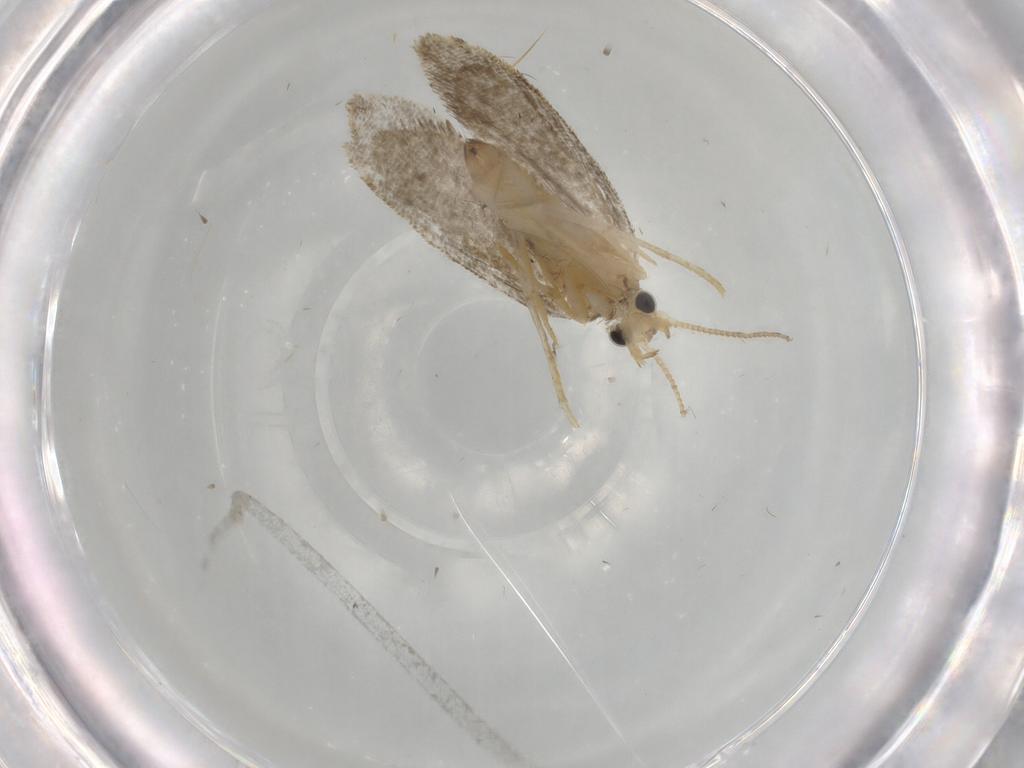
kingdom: Animalia
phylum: Arthropoda
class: Insecta
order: Lepidoptera
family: Psychidae
